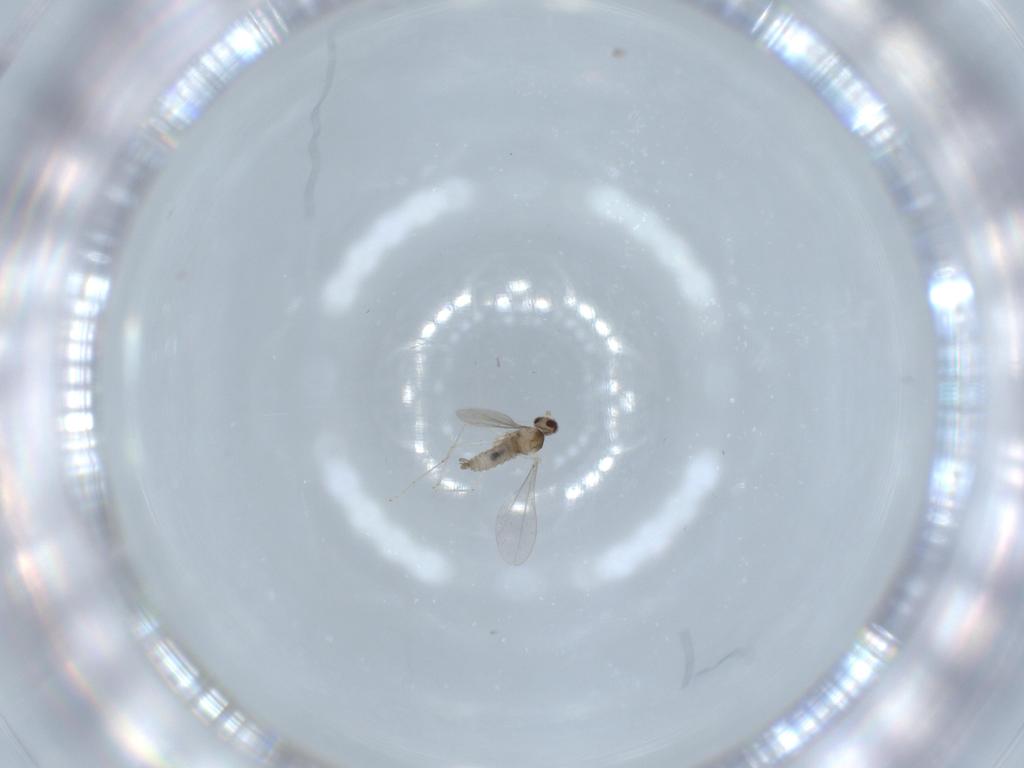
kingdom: Animalia
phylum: Arthropoda
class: Insecta
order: Diptera
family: Cecidomyiidae
